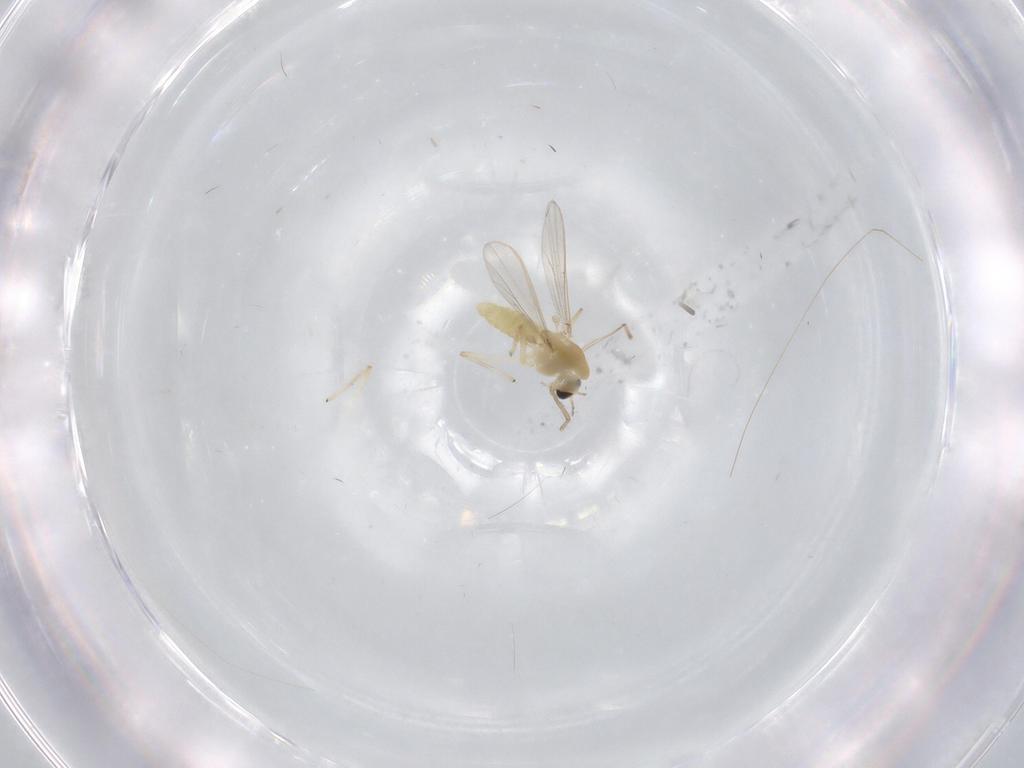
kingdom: Animalia
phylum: Arthropoda
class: Insecta
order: Diptera
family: Chironomidae
